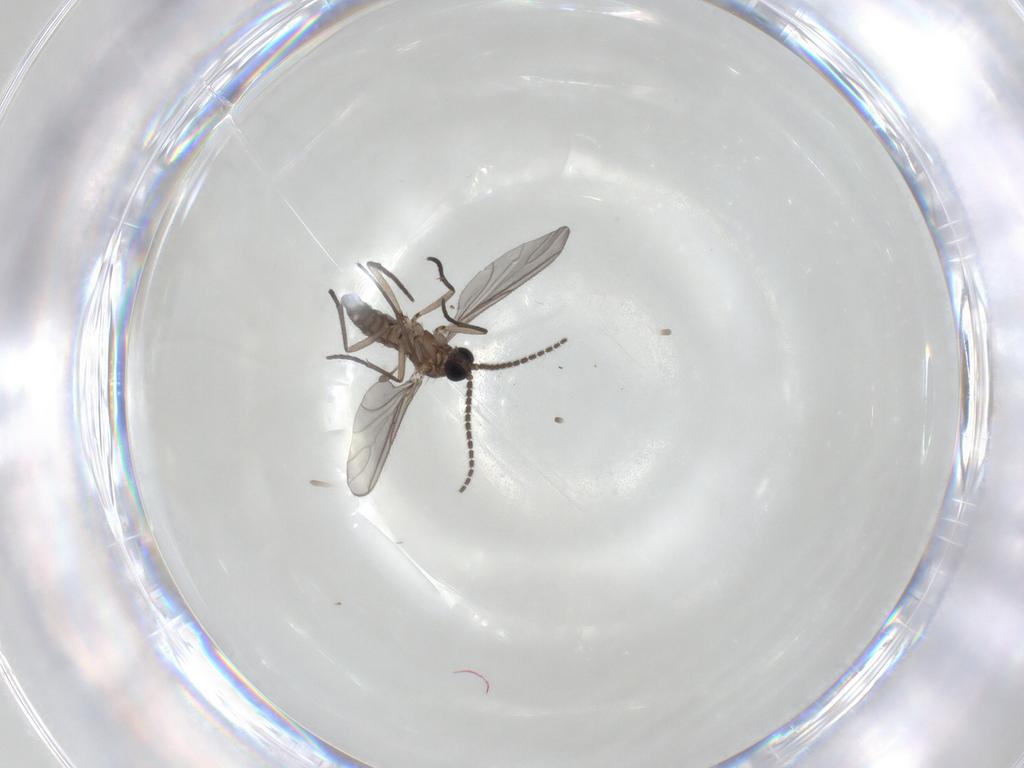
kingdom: Animalia
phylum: Arthropoda
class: Insecta
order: Diptera
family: Sciaridae
